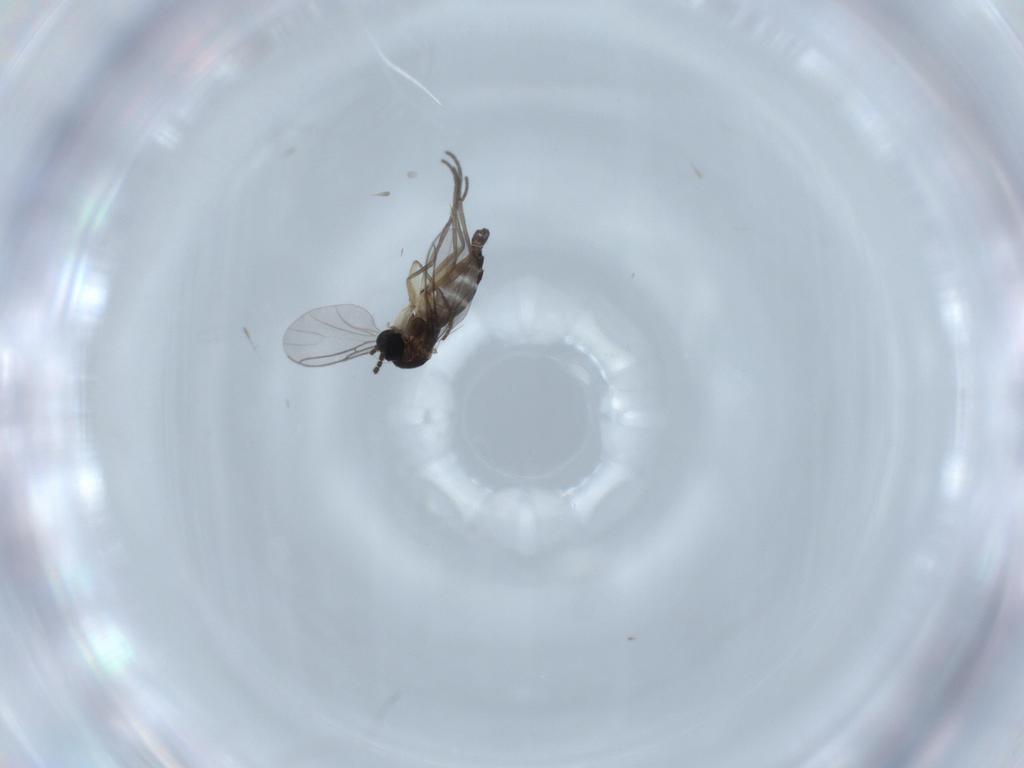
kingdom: Animalia
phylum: Arthropoda
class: Insecta
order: Diptera
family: Sciaridae
